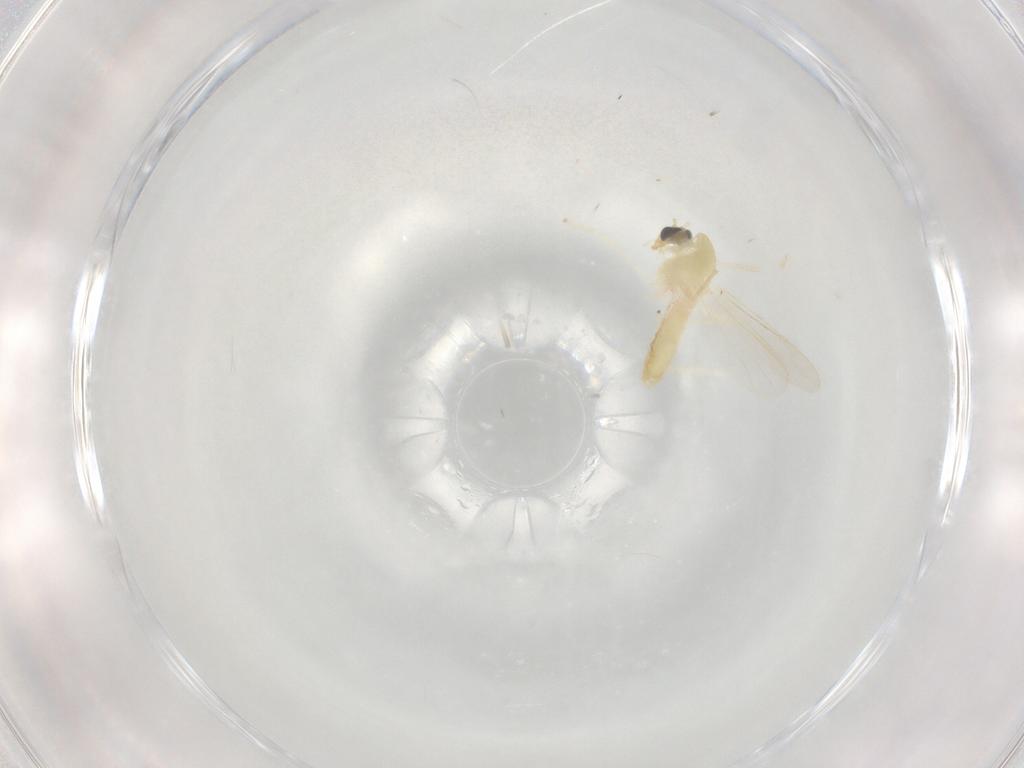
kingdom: Animalia
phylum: Arthropoda
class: Insecta
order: Diptera
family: Chironomidae
